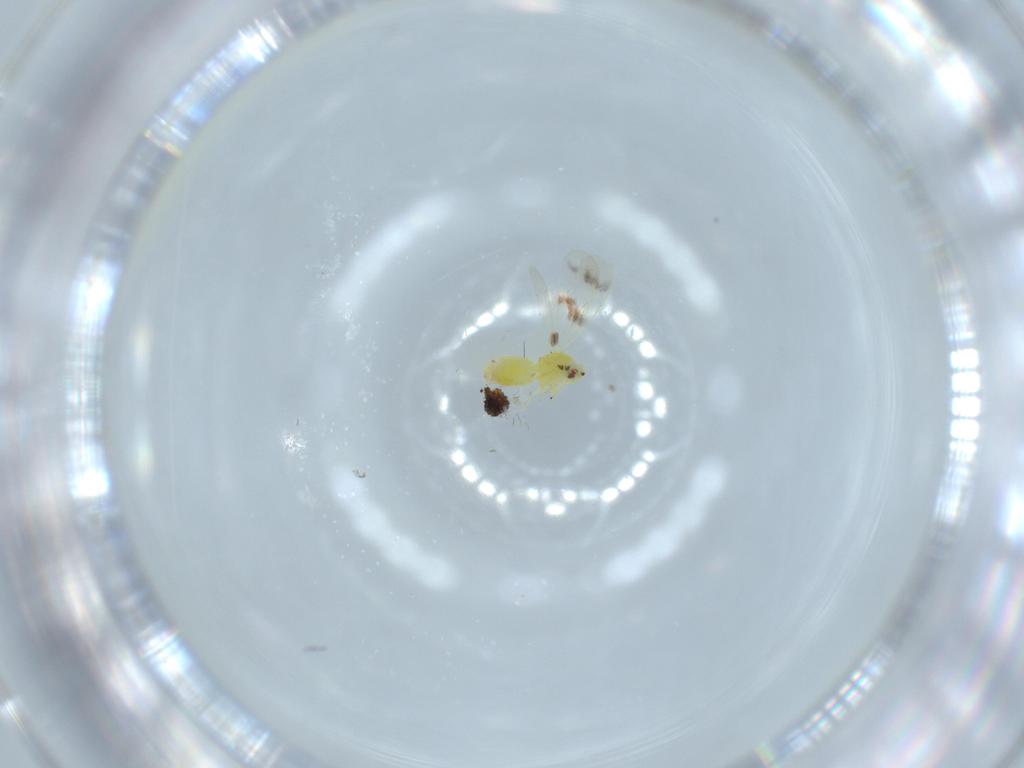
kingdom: Animalia
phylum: Arthropoda
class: Insecta
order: Hemiptera
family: Aleyrodidae
